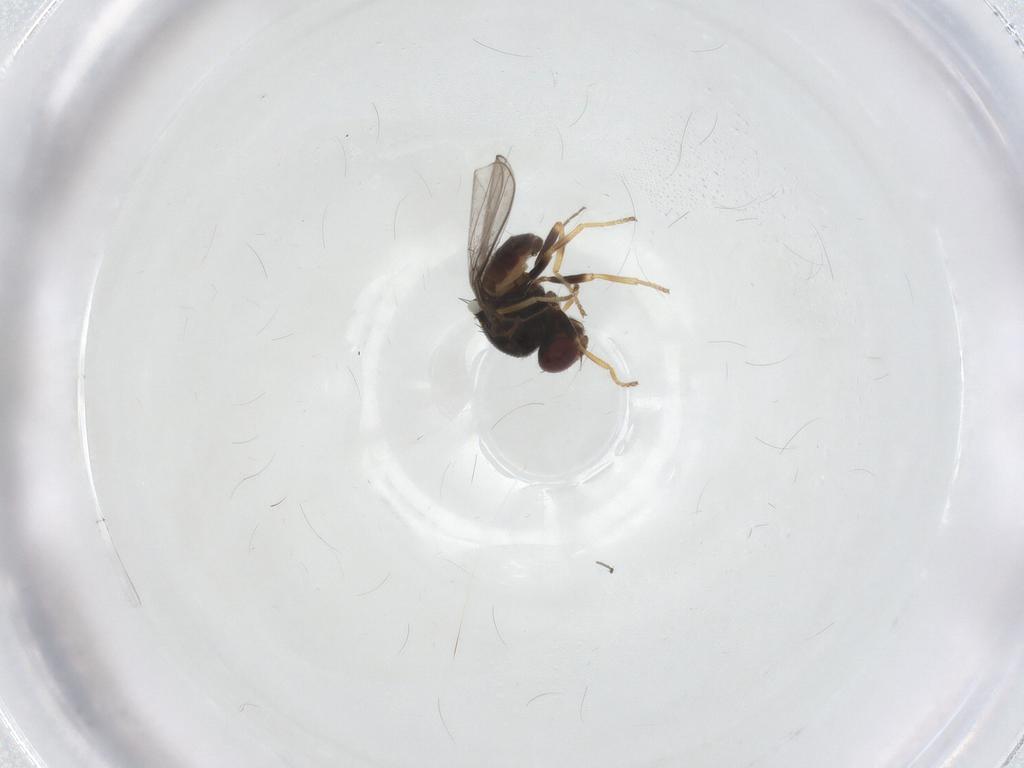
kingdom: Animalia
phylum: Arthropoda
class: Insecta
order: Diptera
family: Chloropidae
